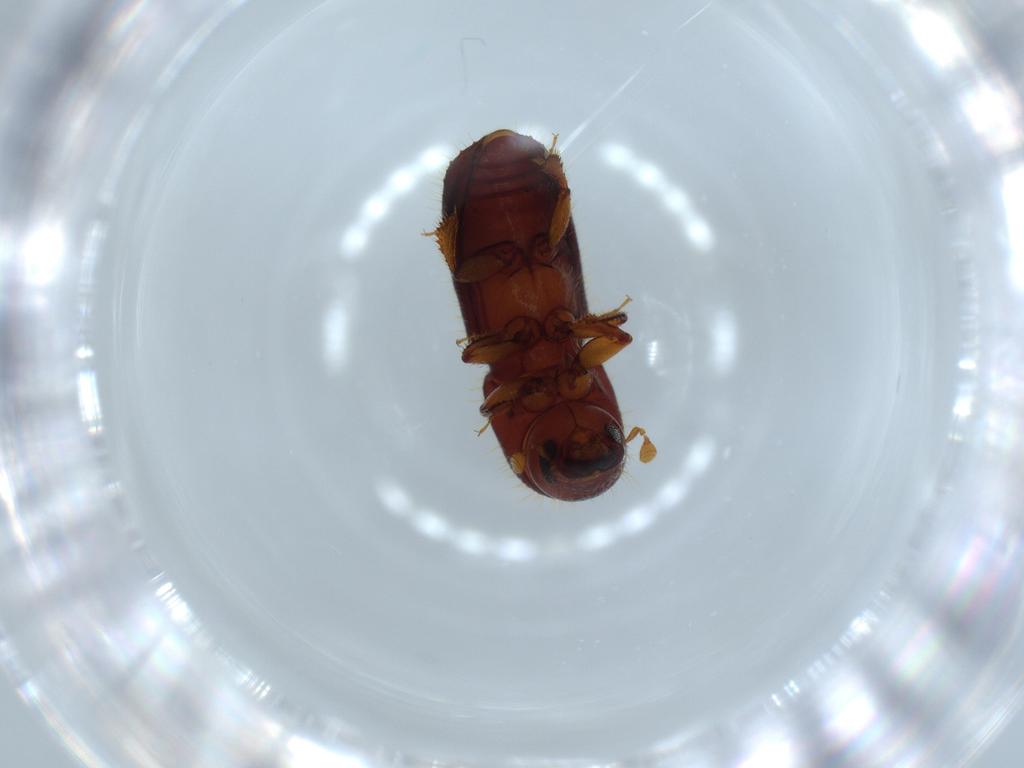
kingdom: Animalia
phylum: Arthropoda
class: Insecta
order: Coleoptera
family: Curculionidae
